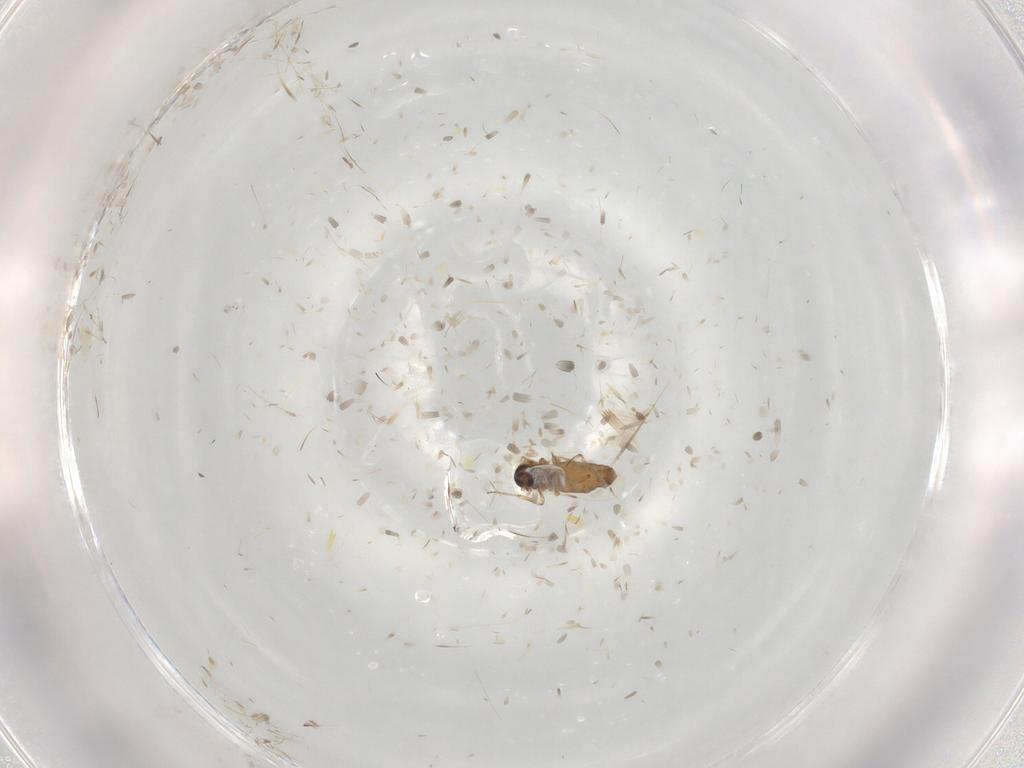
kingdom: Animalia
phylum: Arthropoda
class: Insecta
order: Diptera
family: Ceratopogonidae
